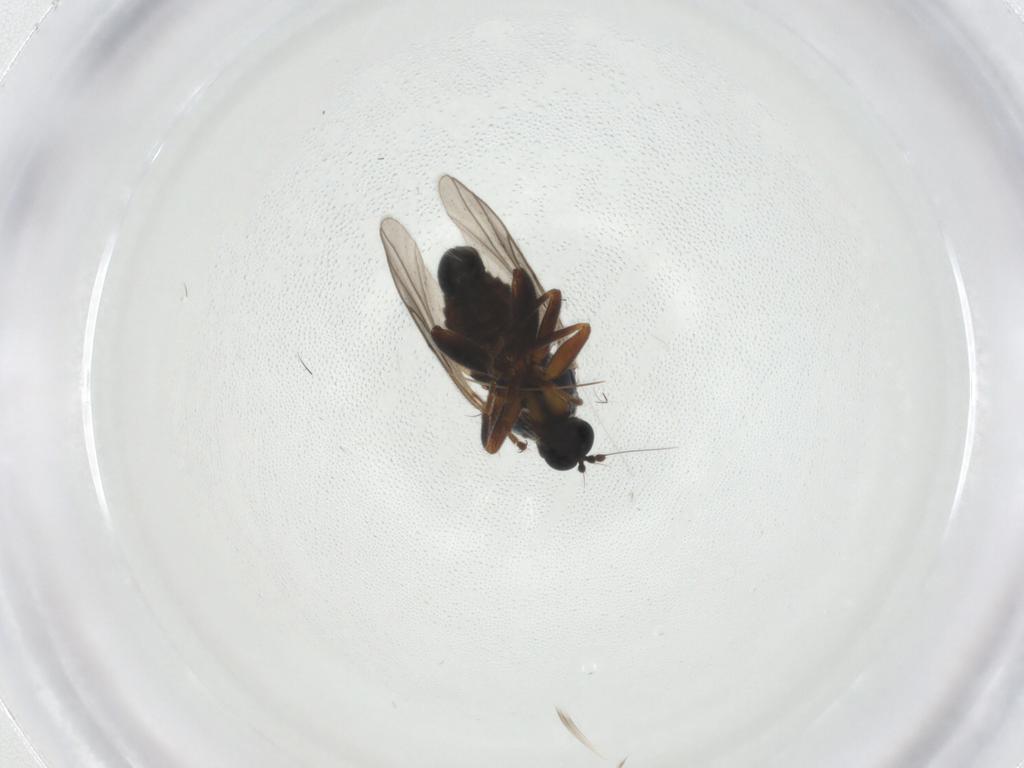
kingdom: Animalia
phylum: Arthropoda
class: Insecta
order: Diptera
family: Hybotidae
